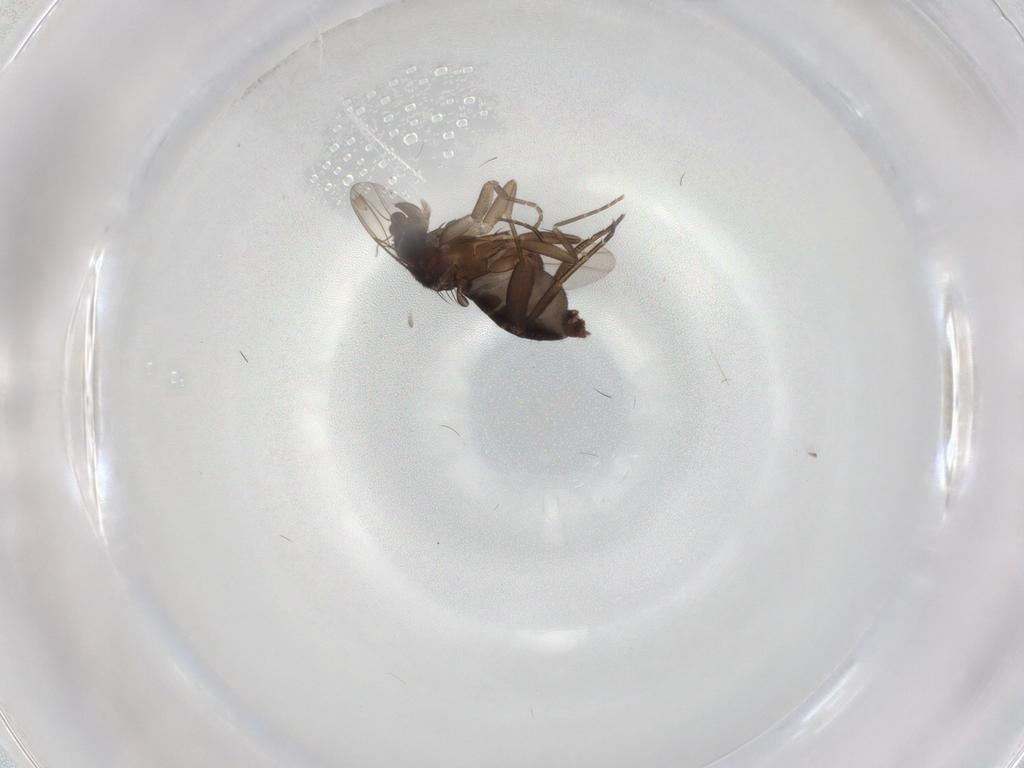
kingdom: Animalia
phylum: Arthropoda
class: Insecta
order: Diptera
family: Phoridae
